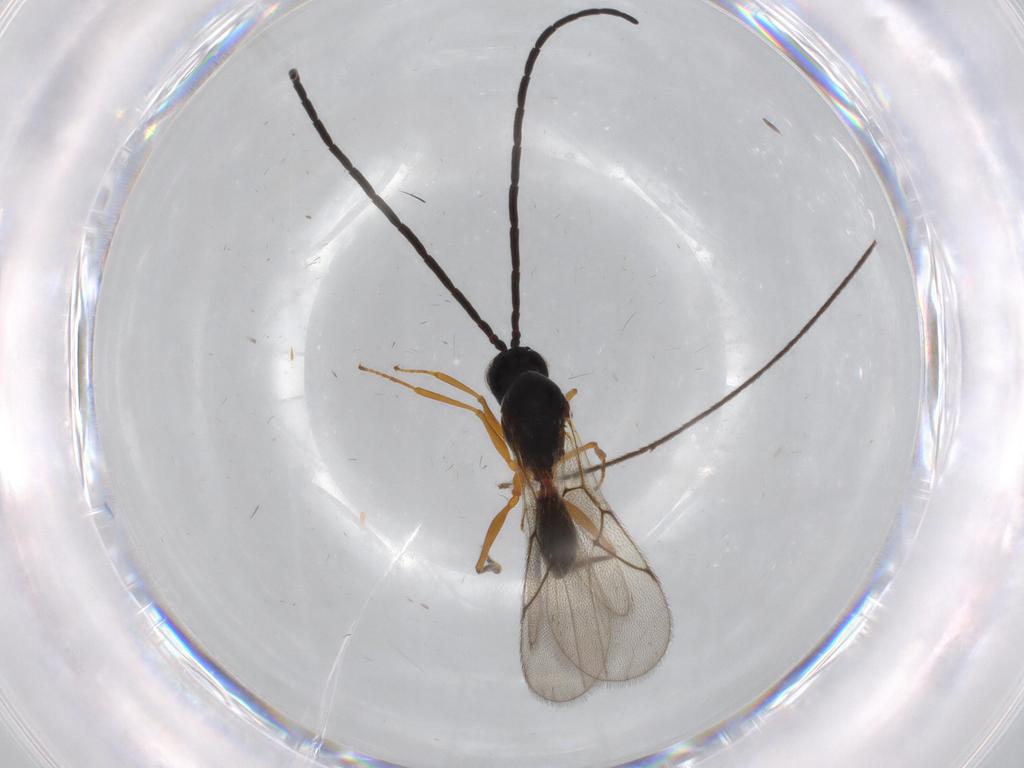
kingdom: Animalia
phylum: Arthropoda
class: Insecta
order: Hymenoptera
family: Figitidae
